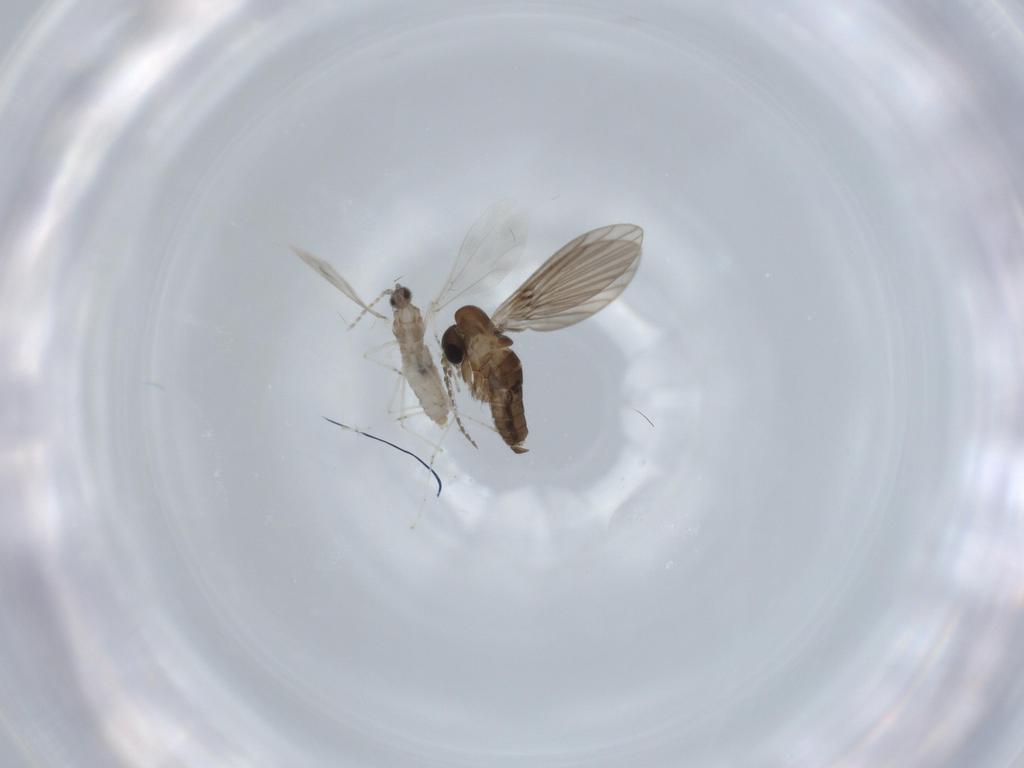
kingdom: Animalia
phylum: Arthropoda
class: Insecta
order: Diptera
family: Psychodidae
